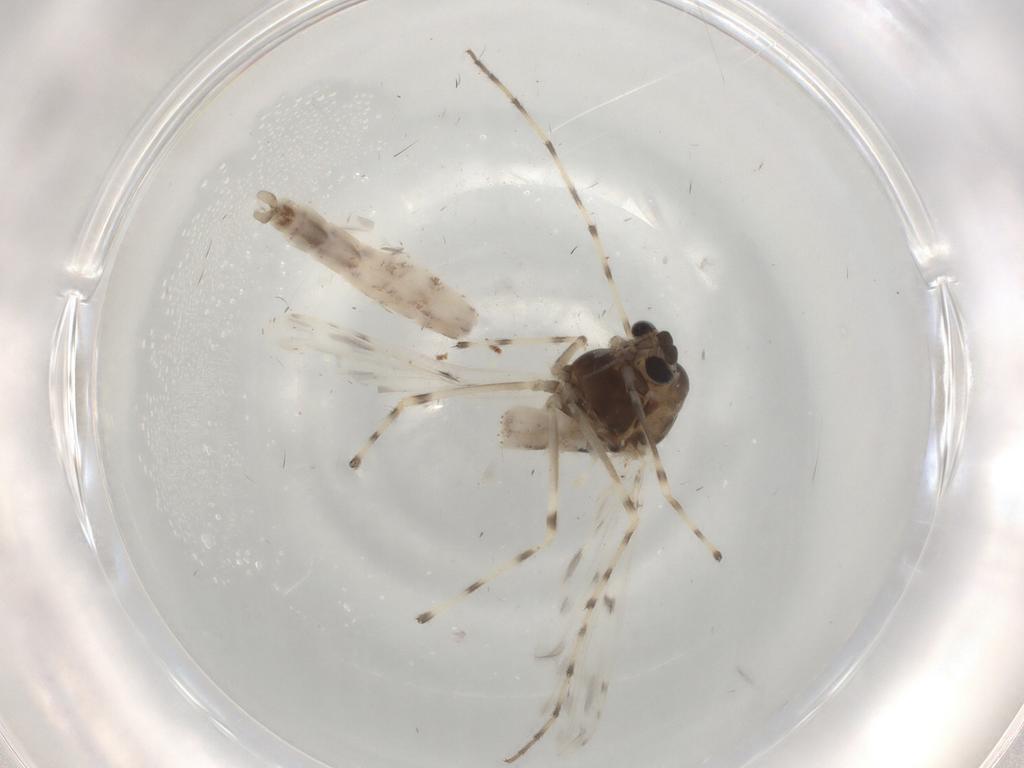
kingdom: Animalia
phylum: Arthropoda
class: Insecta
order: Diptera
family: Chironomidae
